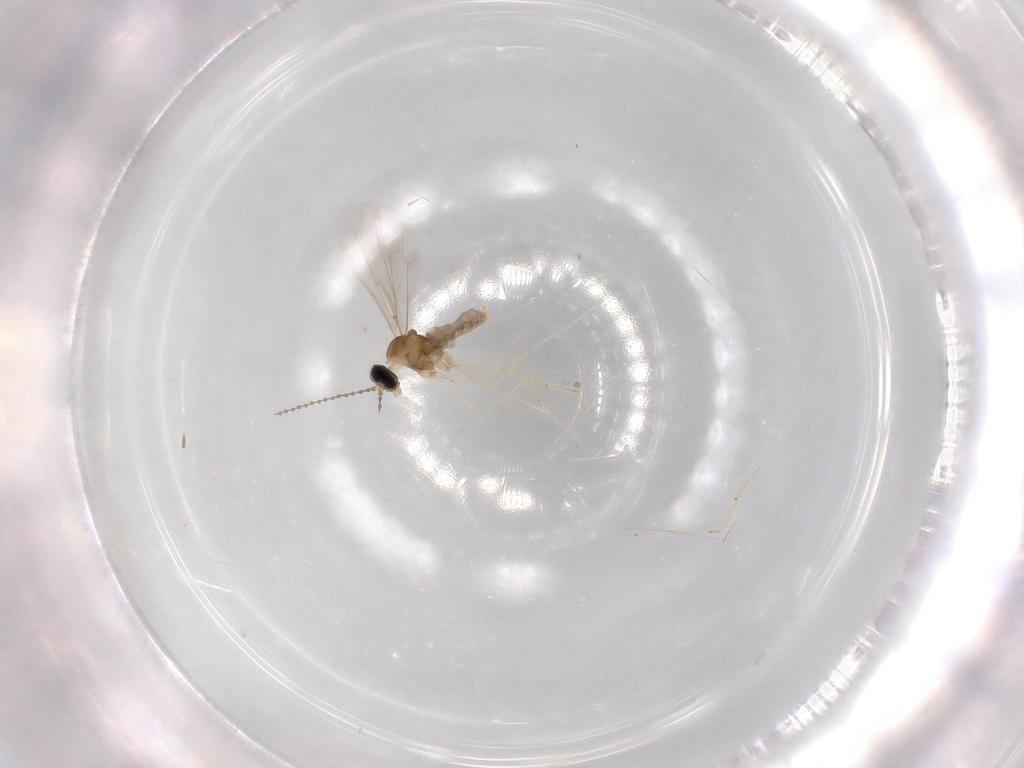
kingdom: Animalia
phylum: Arthropoda
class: Insecta
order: Diptera
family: Cecidomyiidae
